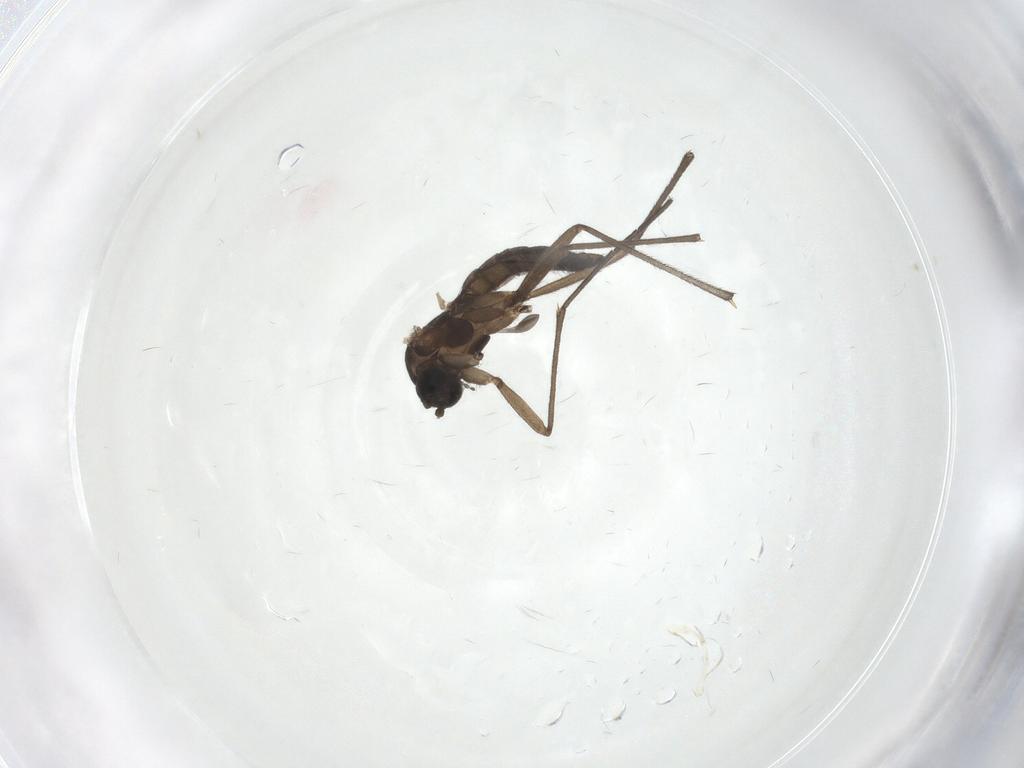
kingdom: Animalia
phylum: Arthropoda
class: Insecta
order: Diptera
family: Sciaridae
